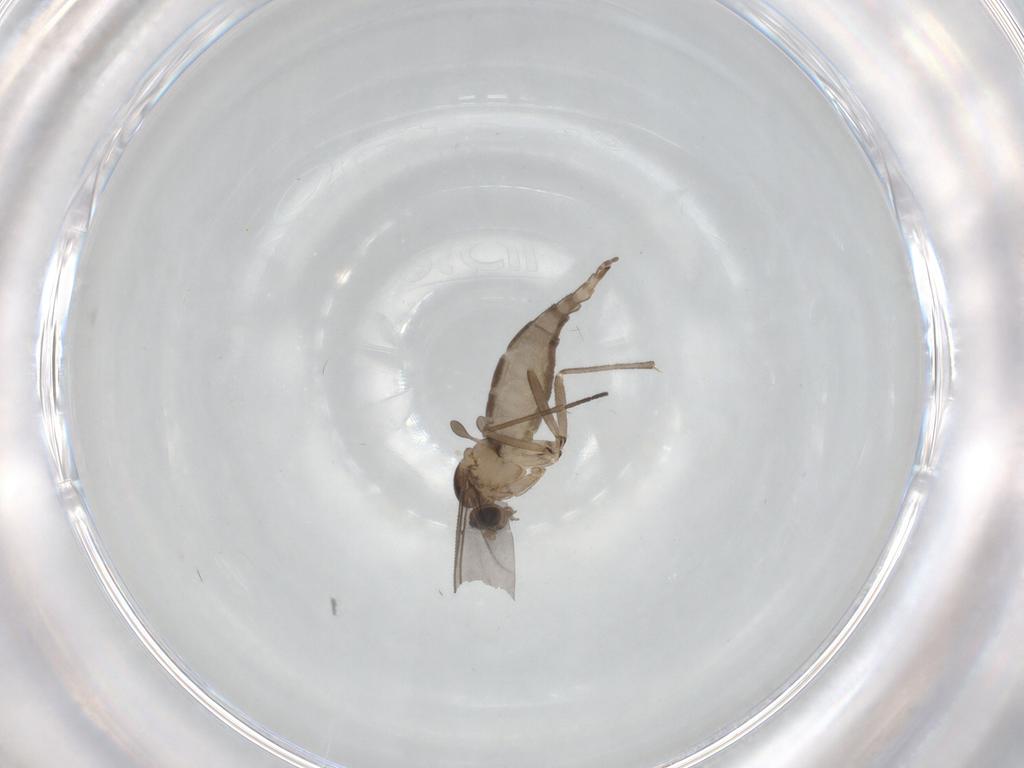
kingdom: Animalia
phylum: Arthropoda
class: Insecta
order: Diptera
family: Sciaridae
